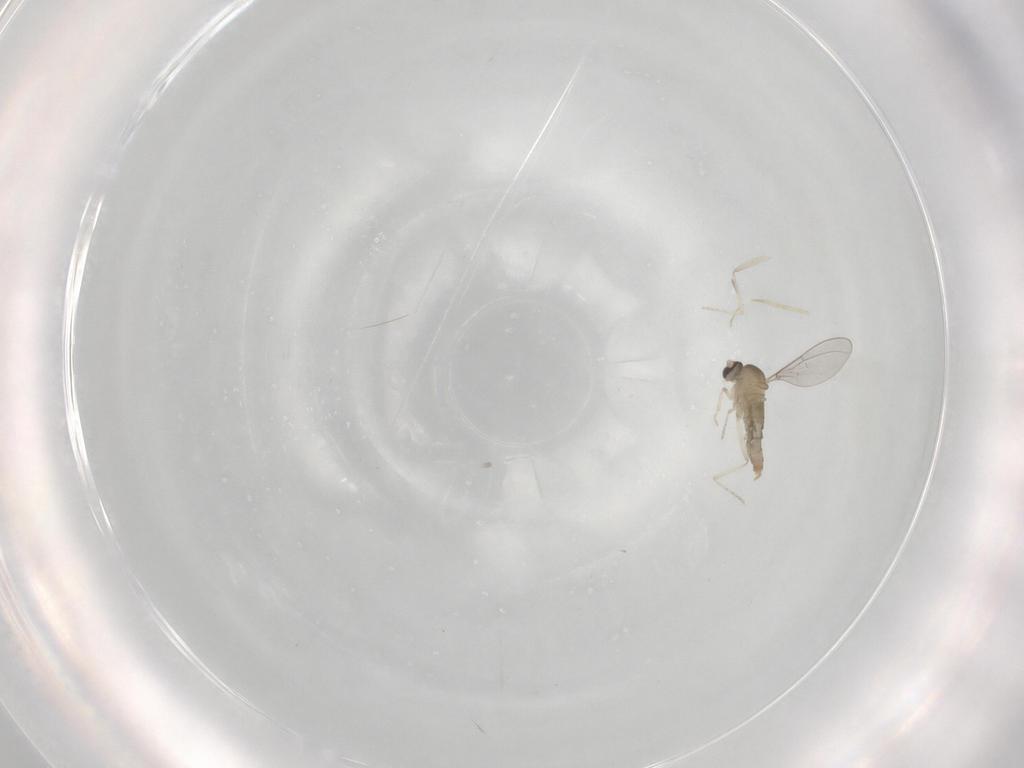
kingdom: Animalia
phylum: Arthropoda
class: Insecta
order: Diptera
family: Cecidomyiidae
